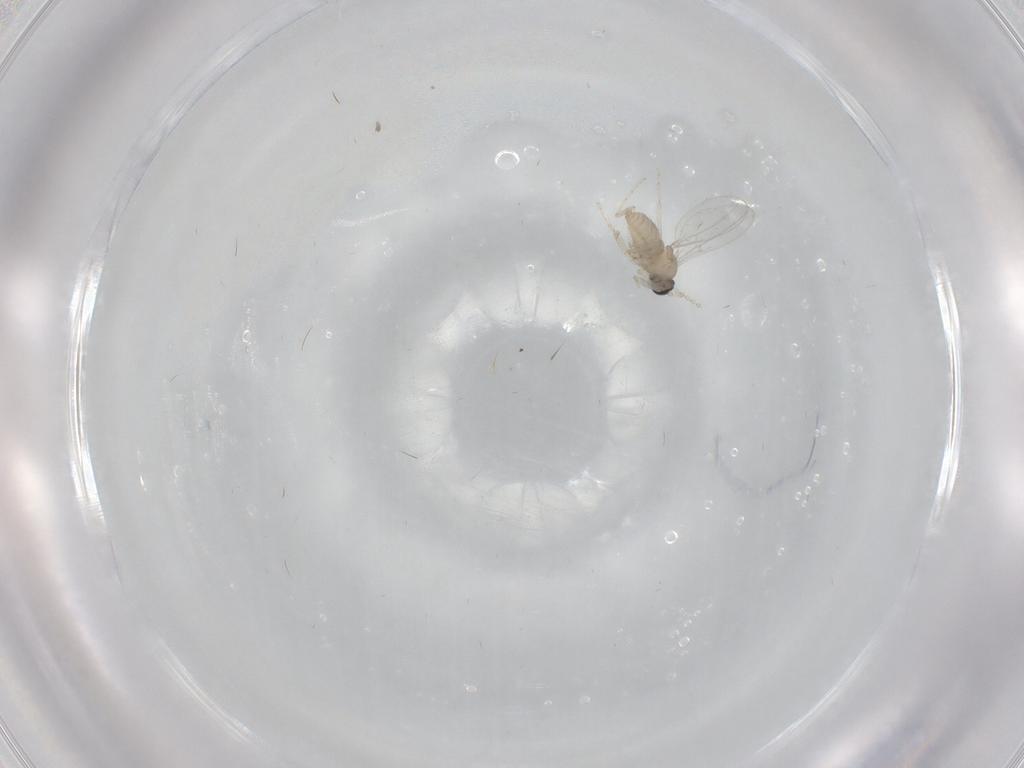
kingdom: Animalia
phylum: Arthropoda
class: Insecta
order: Diptera
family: Cecidomyiidae
